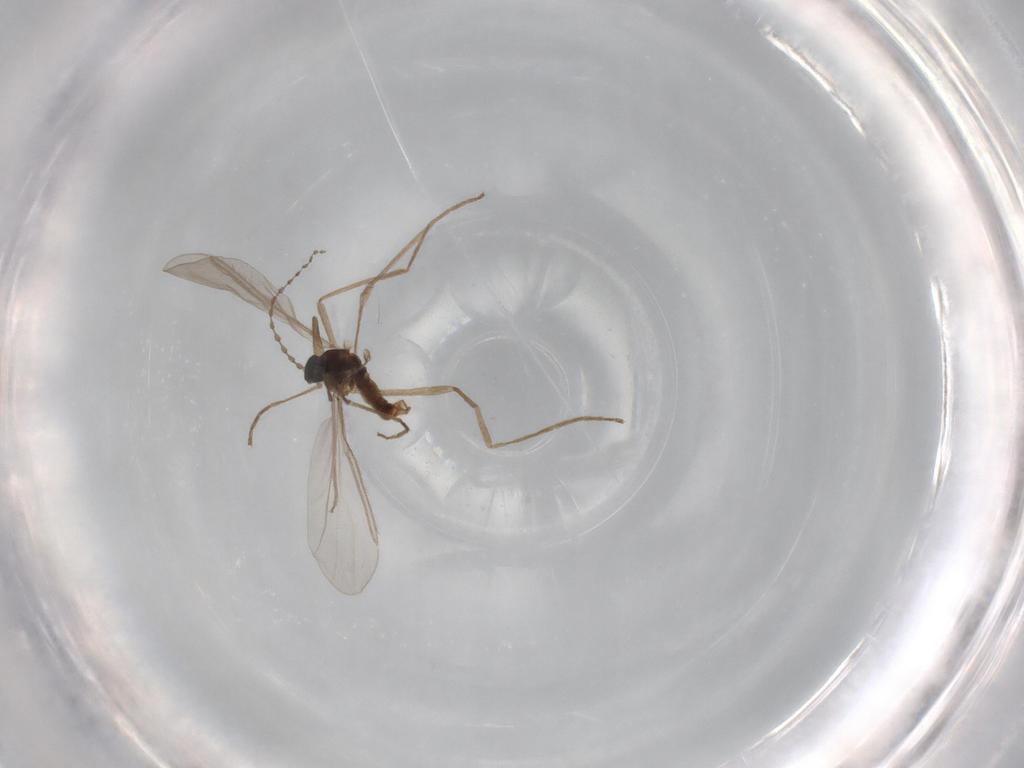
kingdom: Animalia
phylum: Arthropoda
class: Insecta
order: Diptera
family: Cecidomyiidae
